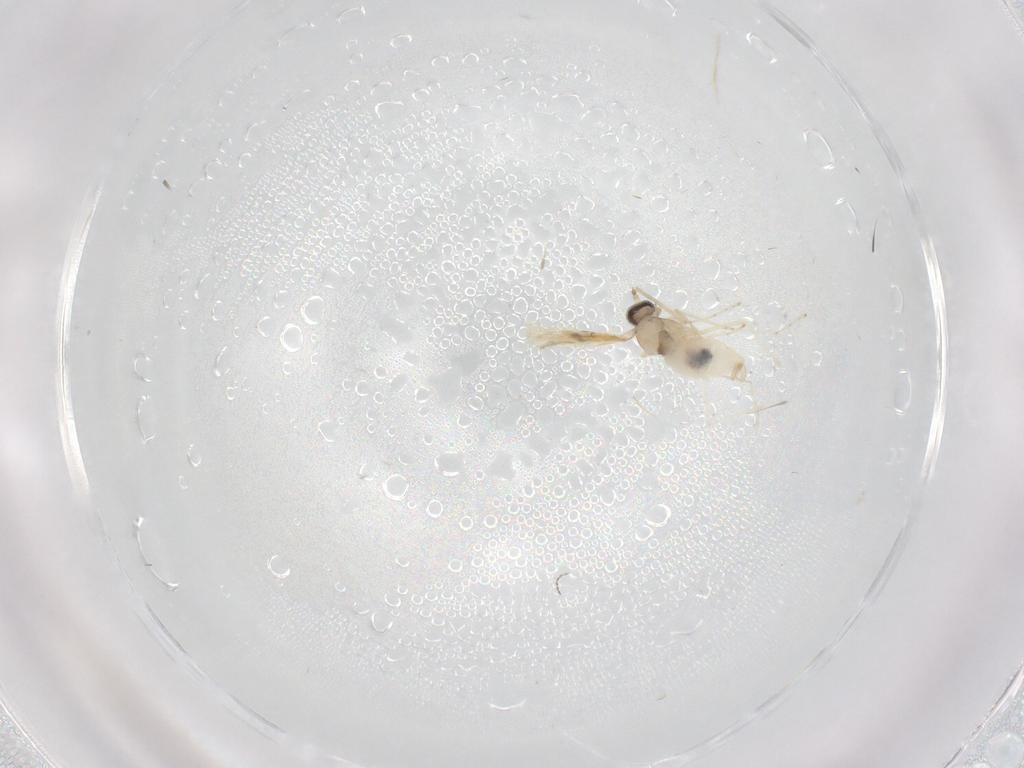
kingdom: Animalia
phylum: Arthropoda
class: Insecta
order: Diptera
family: Cecidomyiidae
